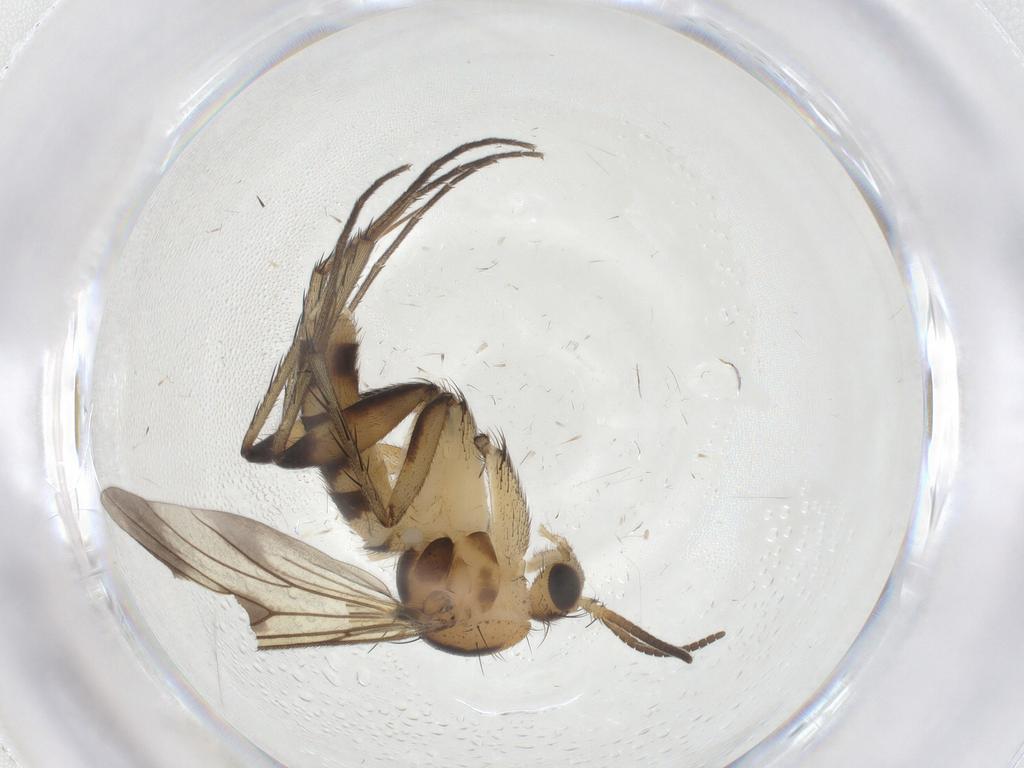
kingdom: Animalia
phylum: Arthropoda
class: Insecta
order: Diptera
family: Mycetophilidae
